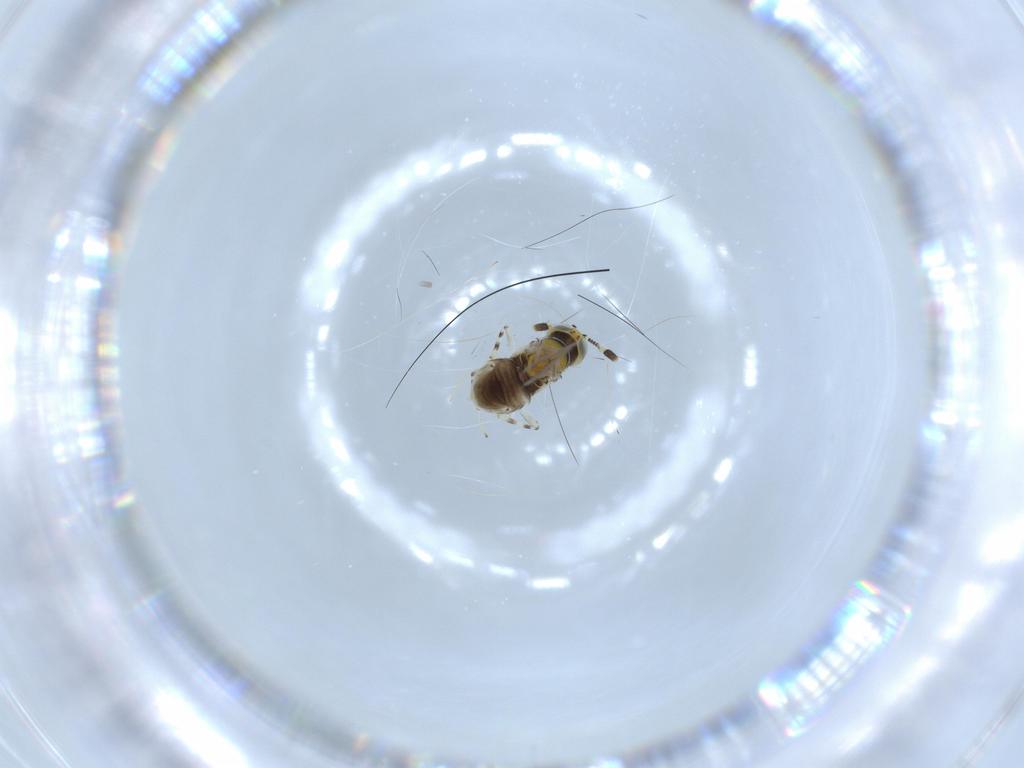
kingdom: Animalia
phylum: Arthropoda
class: Insecta
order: Hymenoptera
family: Encyrtidae
